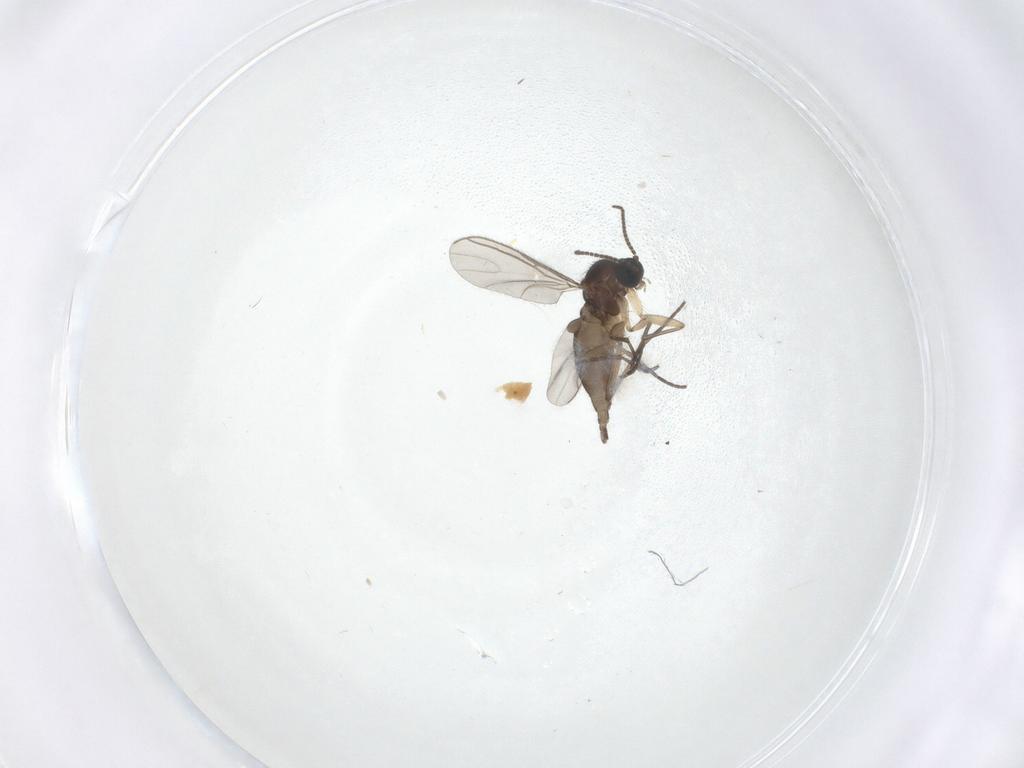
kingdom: Animalia
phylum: Arthropoda
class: Insecta
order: Diptera
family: Sciaridae
